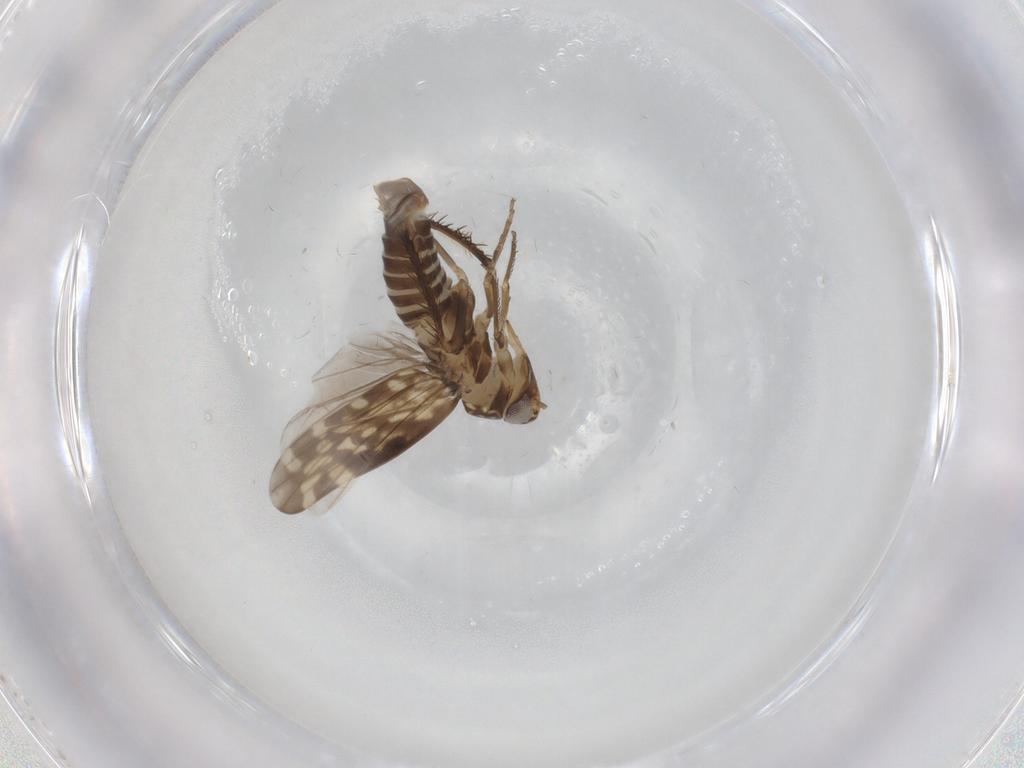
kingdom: Animalia
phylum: Arthropoda
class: Insecta
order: Hemiptera
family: Cicadellidae
